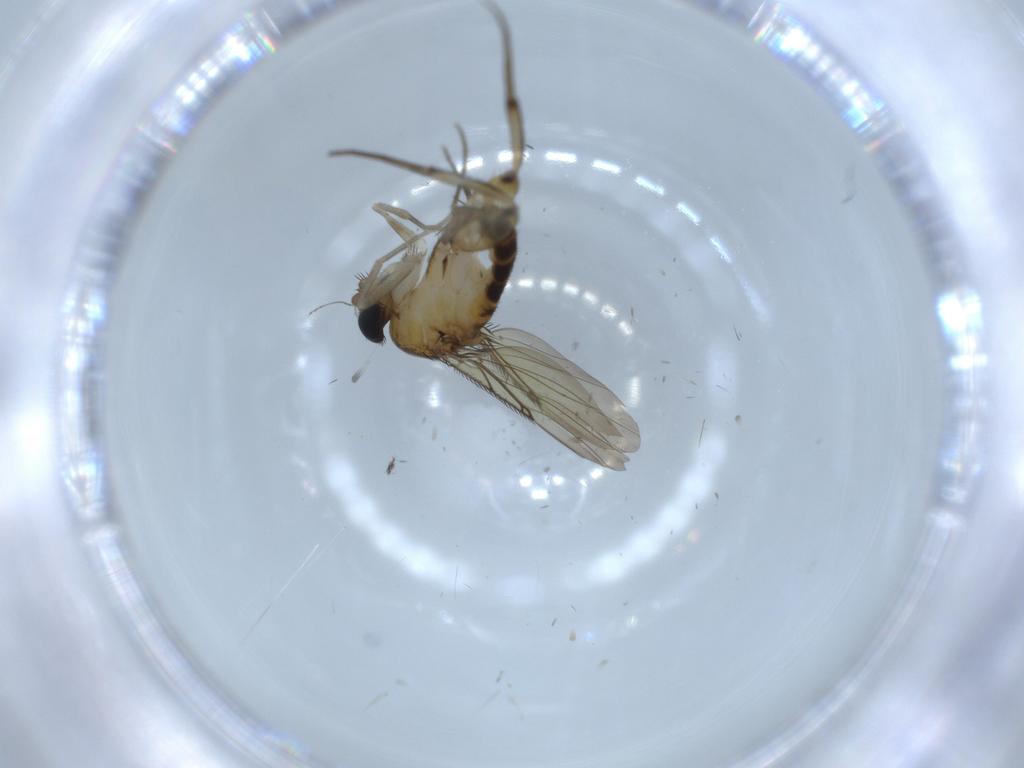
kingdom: Animalia
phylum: Arthropoda
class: Insecta
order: Diptera
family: Phoridae
